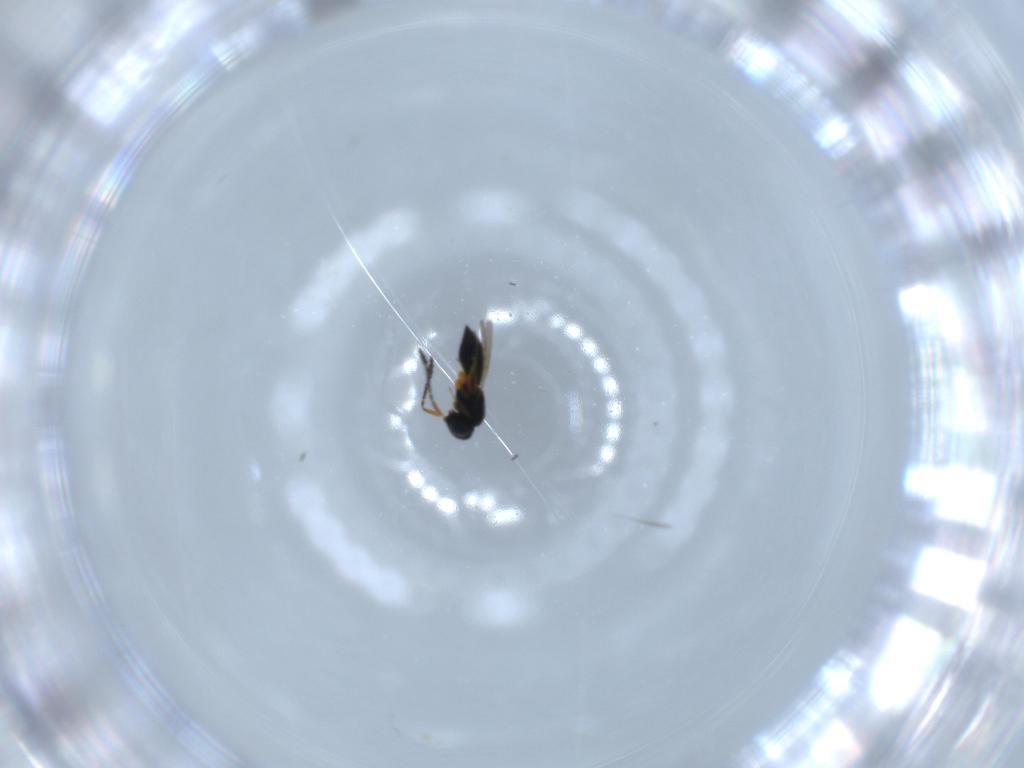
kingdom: Animalia
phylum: Arthropoda
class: Insecta
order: Hymenoptera
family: Scelionidae
